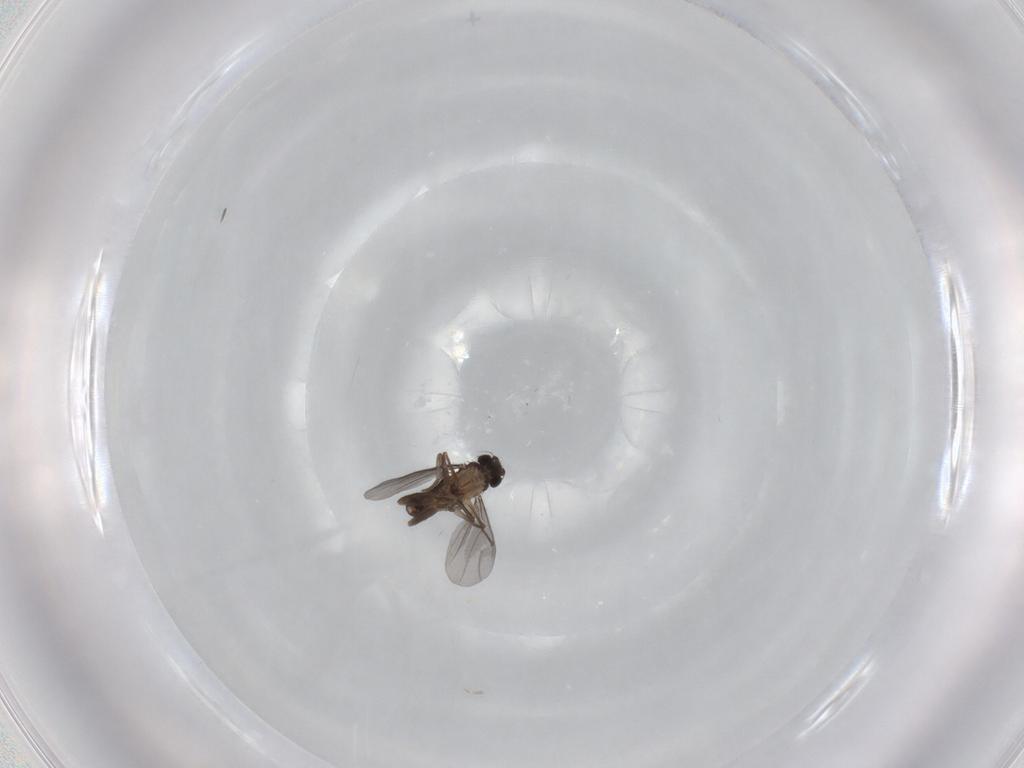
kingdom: Animalia
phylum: Arthropoda
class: Insecta
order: Diptera
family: Cecidomyiidae
